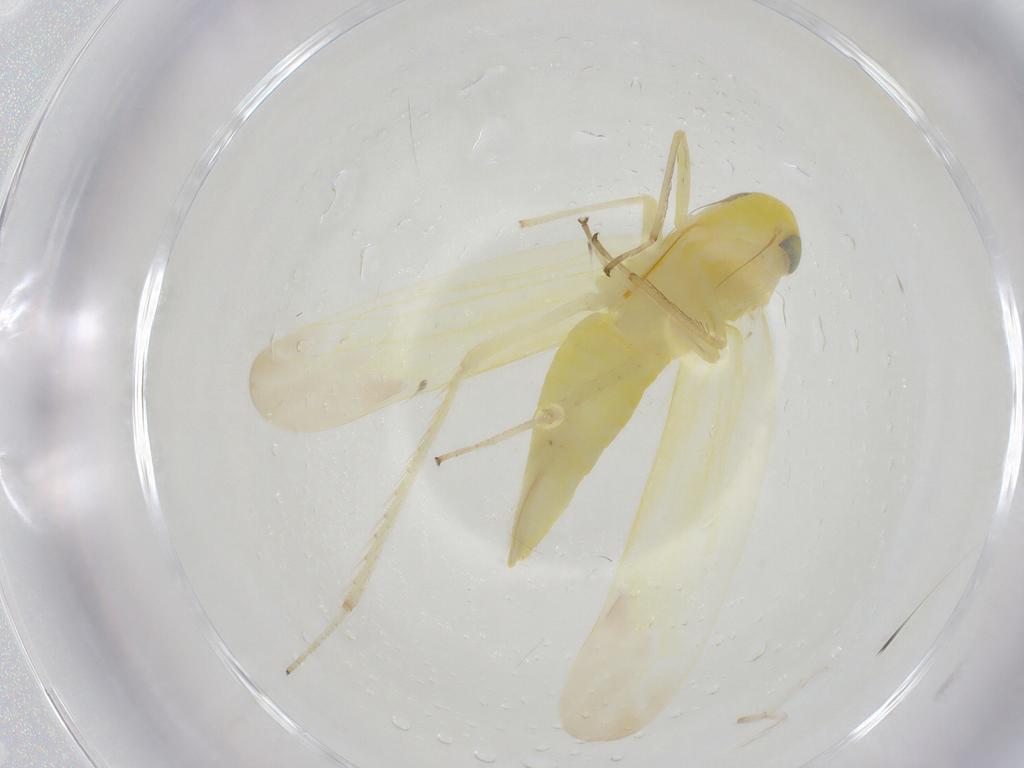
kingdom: Animalia
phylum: Arthropoda
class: Insecta
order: Hemiptera
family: Cicadellidae
